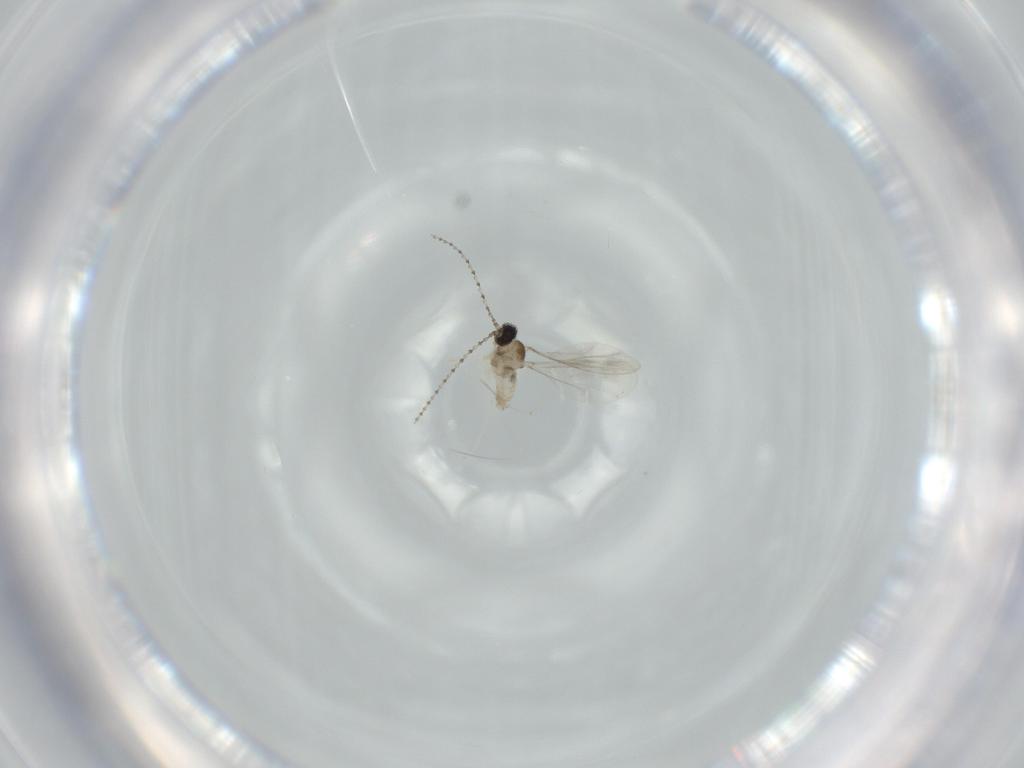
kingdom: Animalia
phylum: Arthropoda
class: Insecta
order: Diptera
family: Cecidomyiidae
